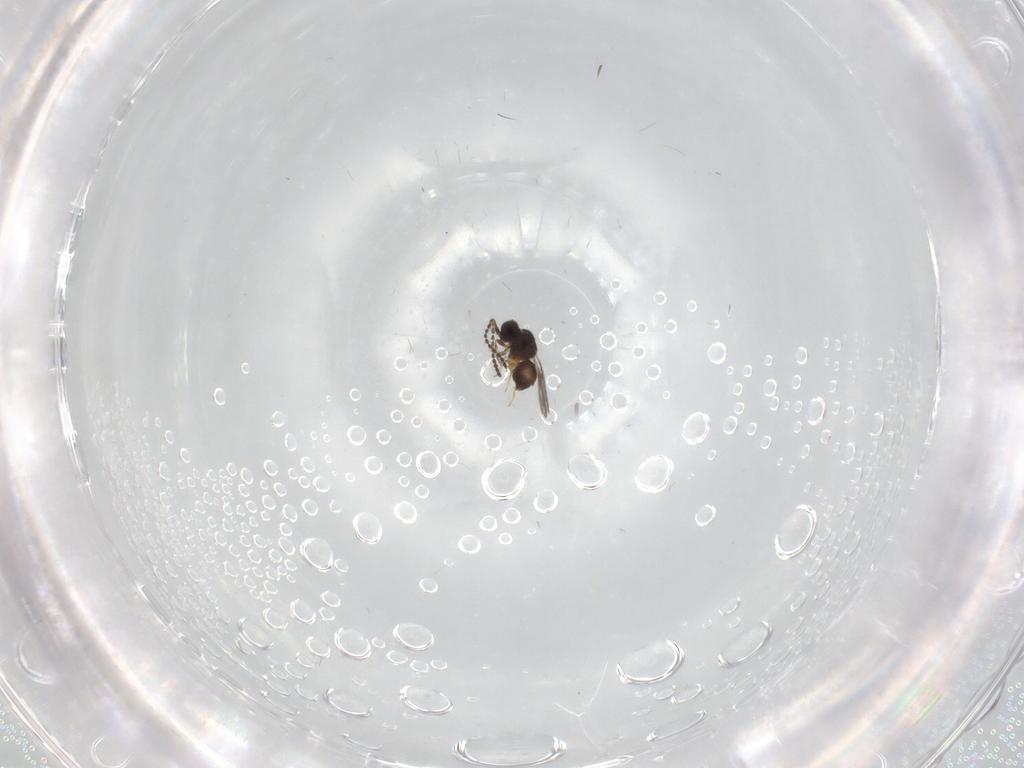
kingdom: Animalia
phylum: Arthropoda
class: Insecta
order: Hymenoptera
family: Ceraphronidae
